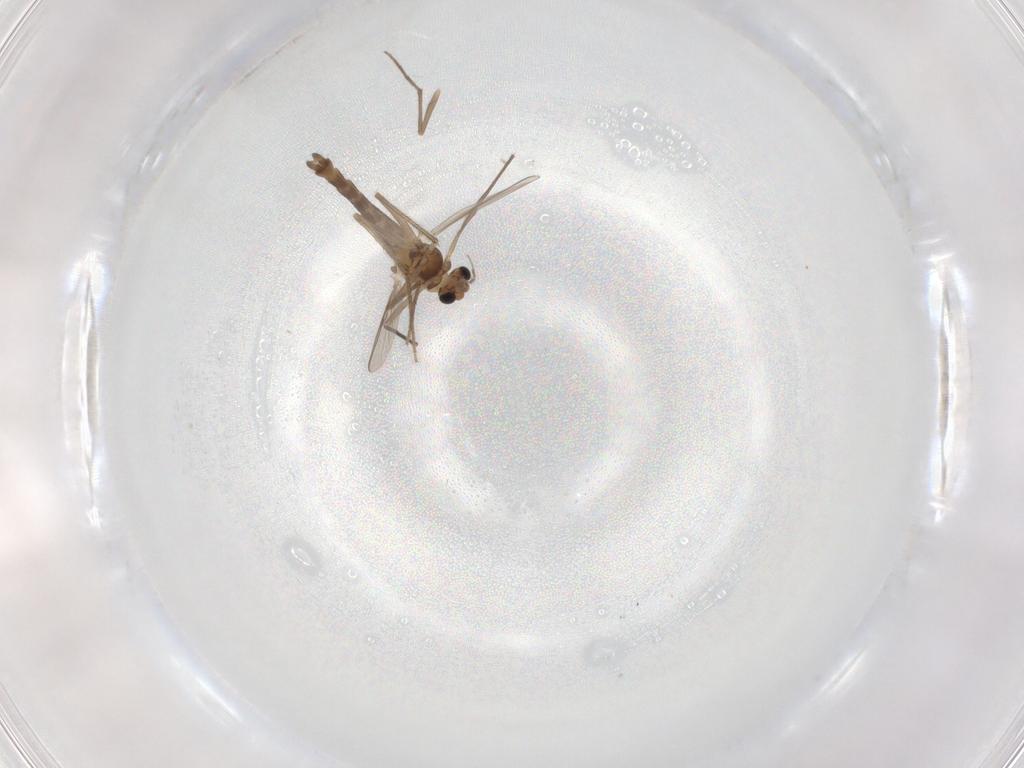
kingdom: Animalia
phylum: Arthropoda
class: Insecta
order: Diptera
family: Chironomidae
